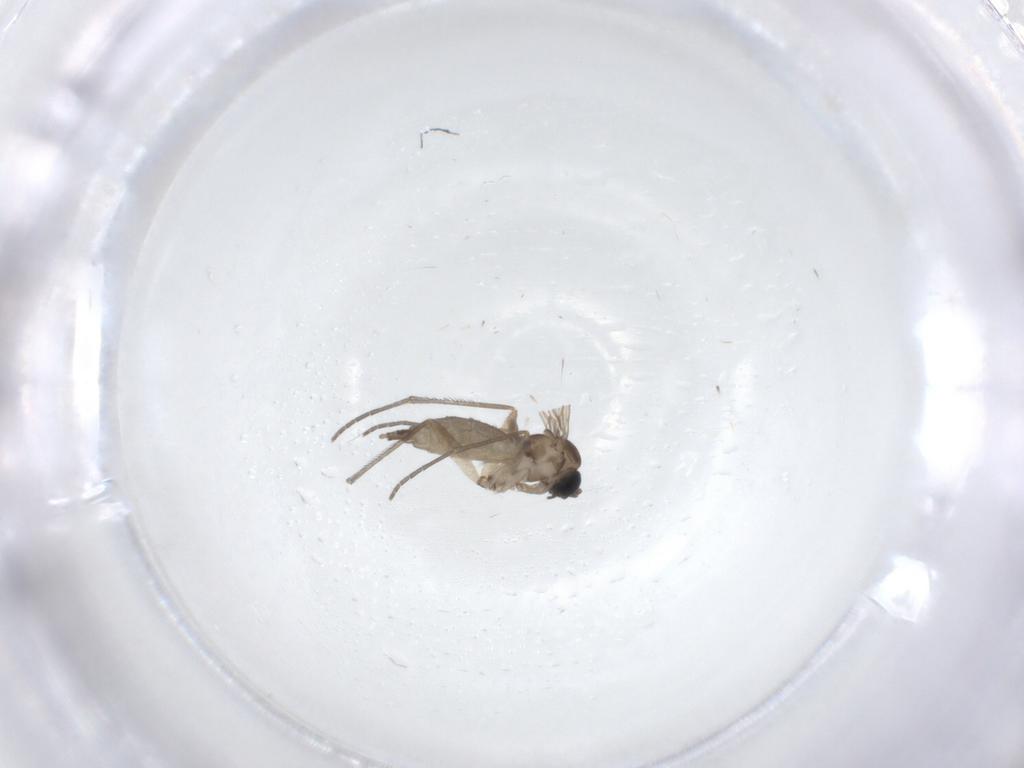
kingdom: Animalia
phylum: Arthropoda
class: Insecta
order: Diptera
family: Sciaridae
